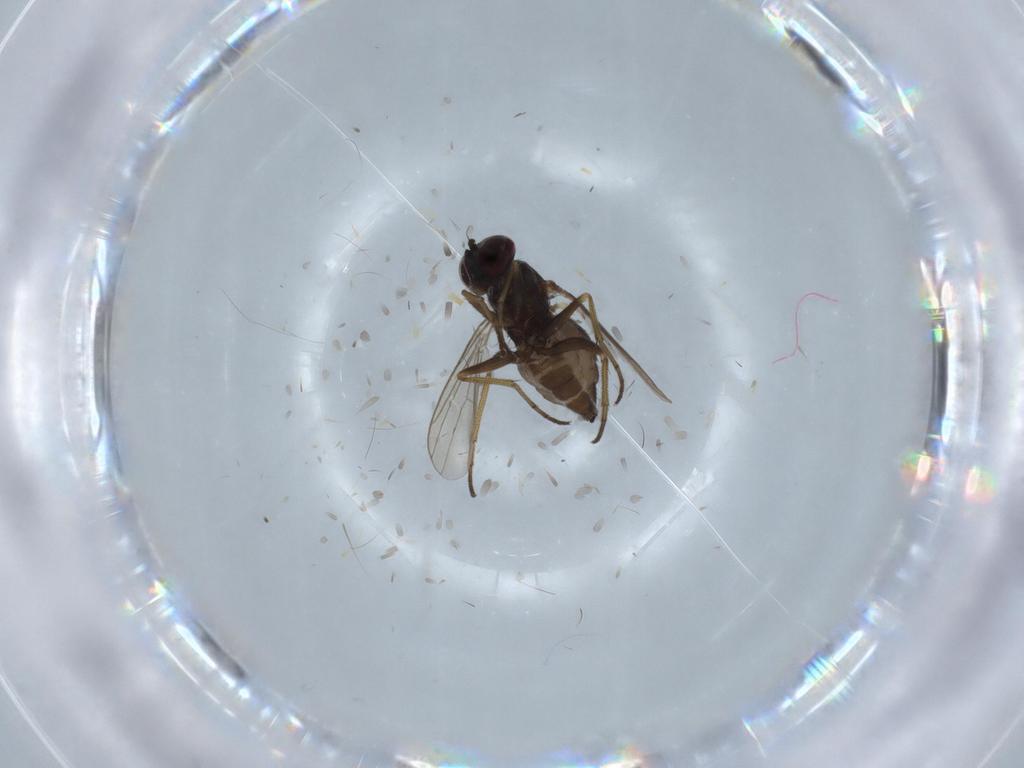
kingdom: Animalia
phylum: Arthropoda
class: Insecta
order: Diptera
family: Dolichopodidae
